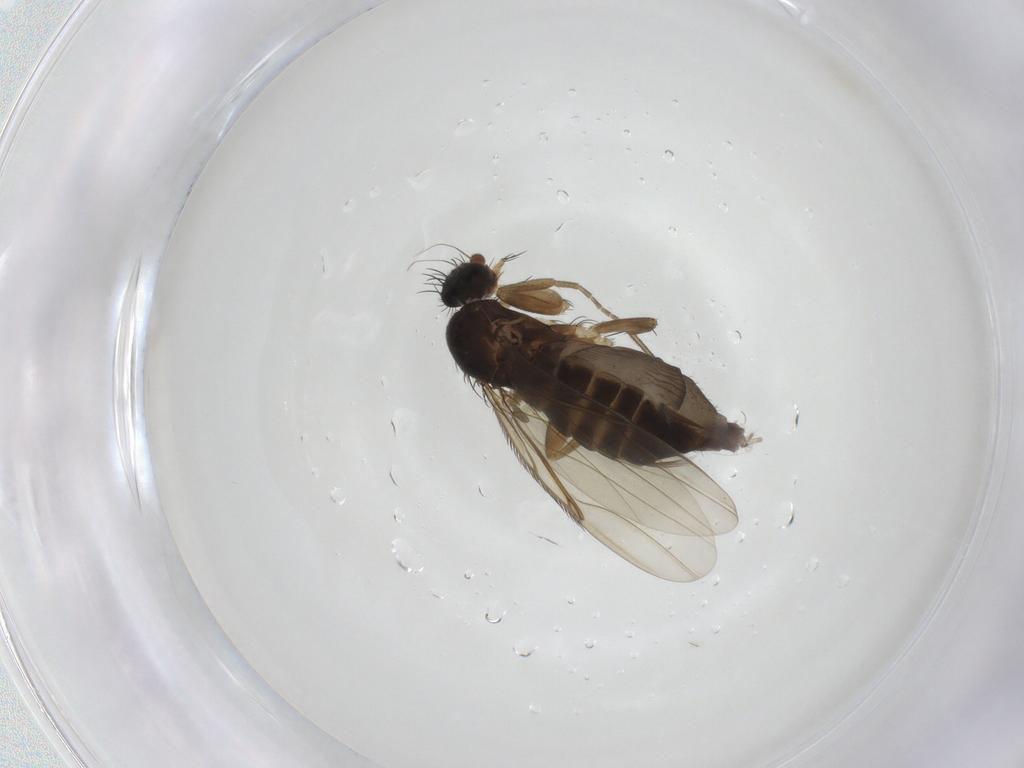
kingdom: Animalia
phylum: Arthropoda
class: Insecta
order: Diptera
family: Phoridae
